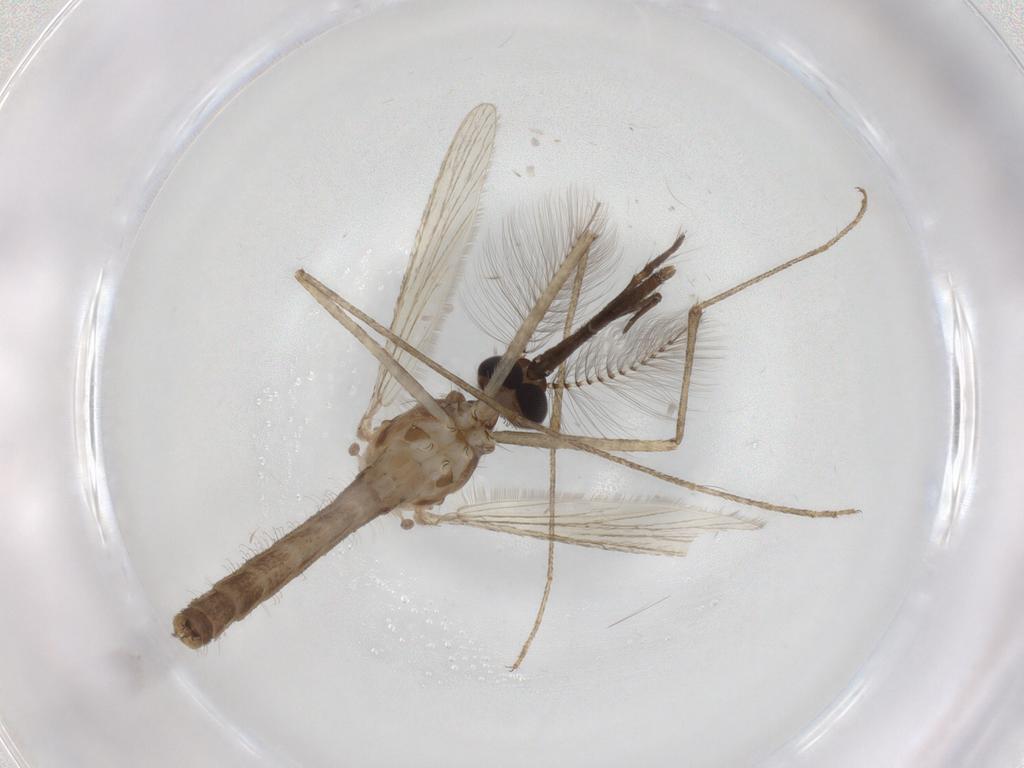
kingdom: Animalia
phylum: Arthropoda
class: Insecta
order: Diptera
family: Culicidae
